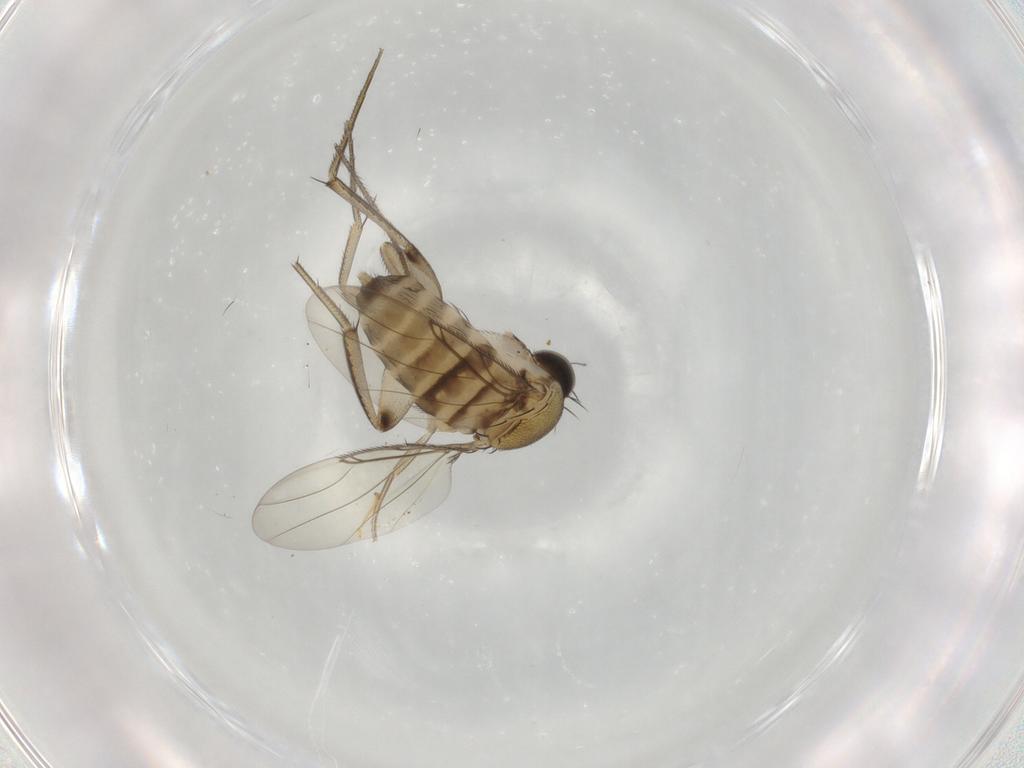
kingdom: Animalia
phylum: Arthropoda
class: Insecta
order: Diptera
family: Phoridae
